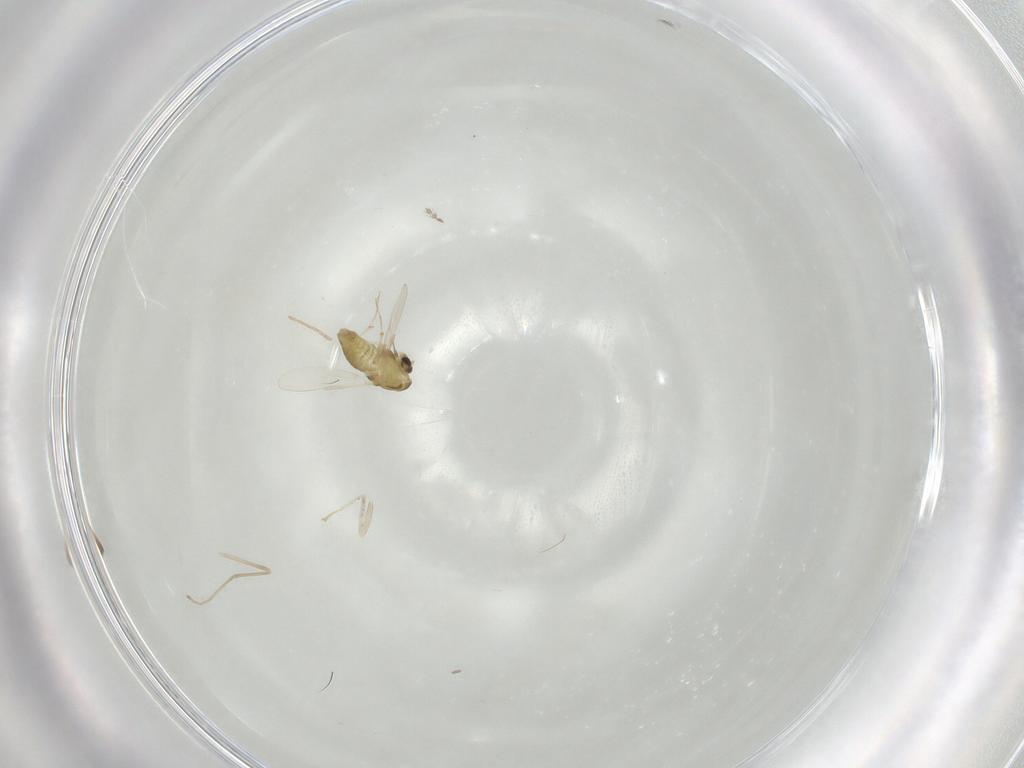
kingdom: Animalia
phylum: Arthropoda
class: Insecta
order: Diptera
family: Chironomidae
